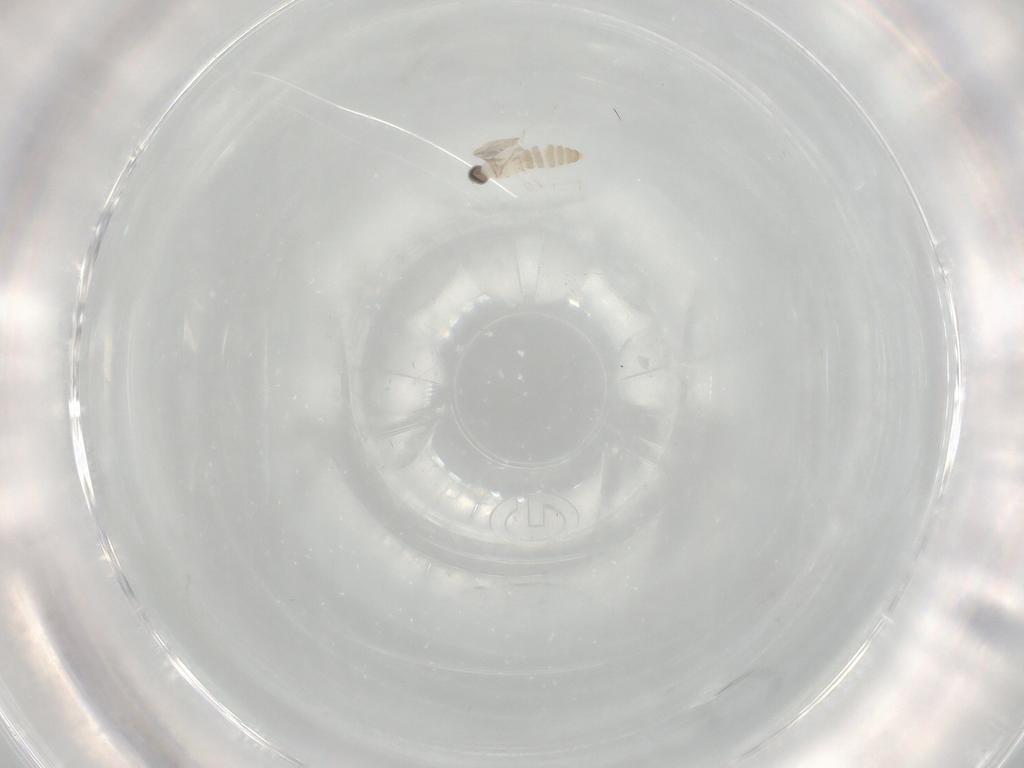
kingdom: Animalia
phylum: Arthropoda
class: Insecta
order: Diptera
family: Cecidomyiidae
